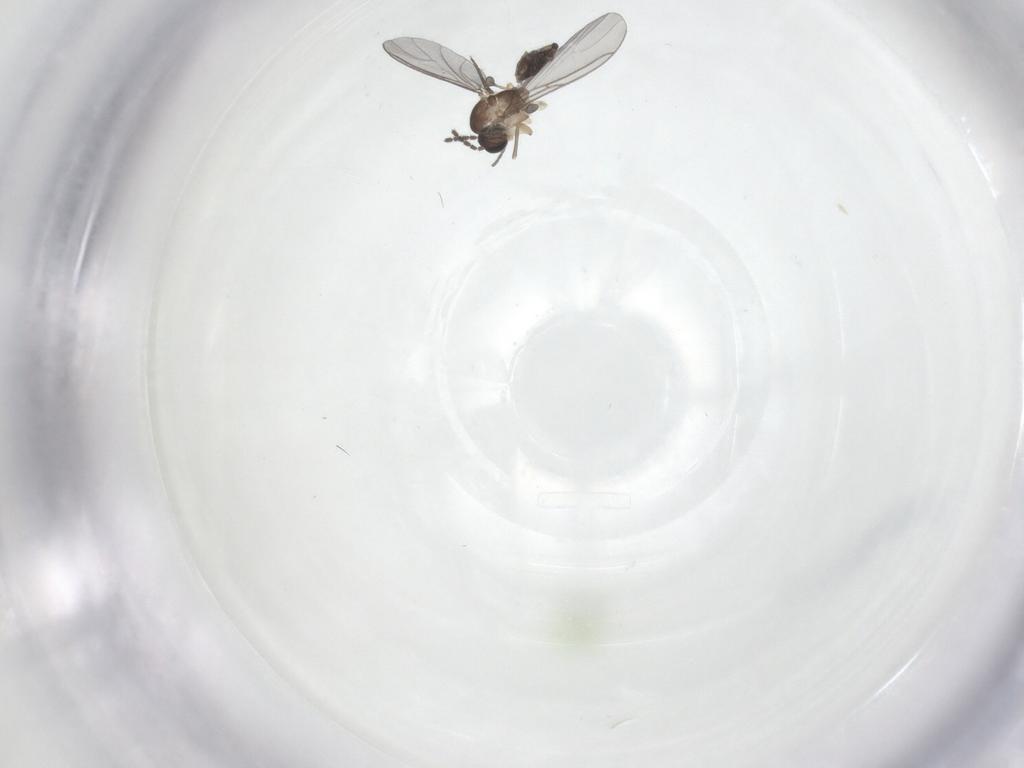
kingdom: Animalia
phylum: Arthropoda
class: Insecta
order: Diptera
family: Sciaridae
